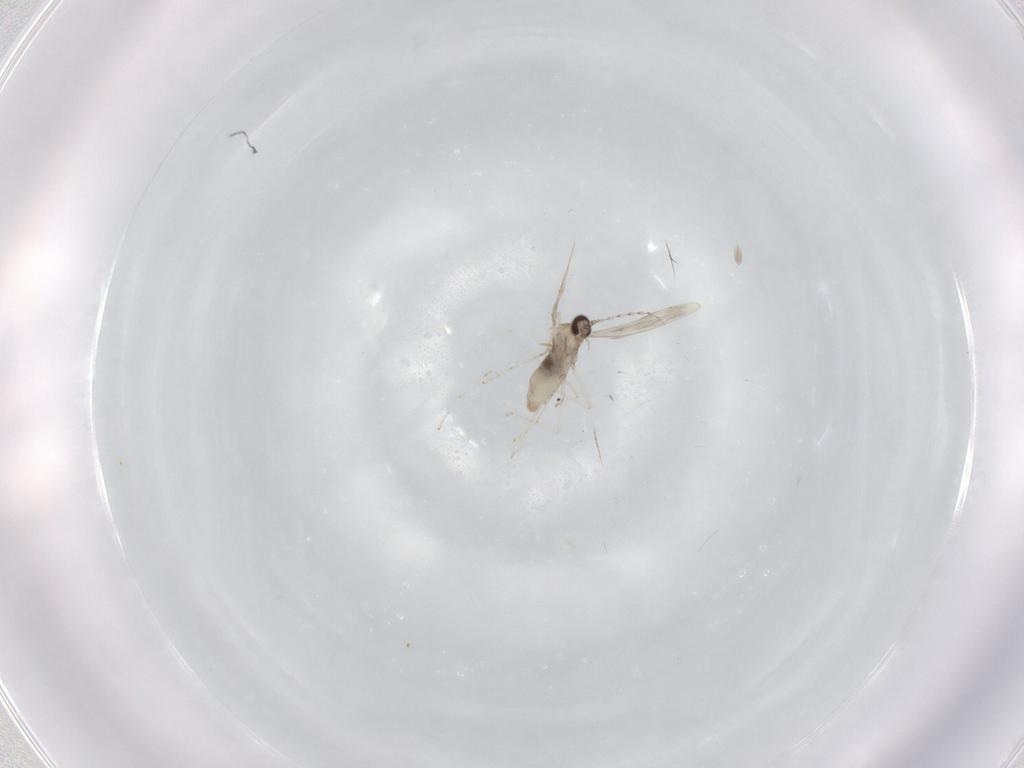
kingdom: Animalia
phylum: Arthropoda
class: Insecta
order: Diptera
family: Cecidomyiidae
